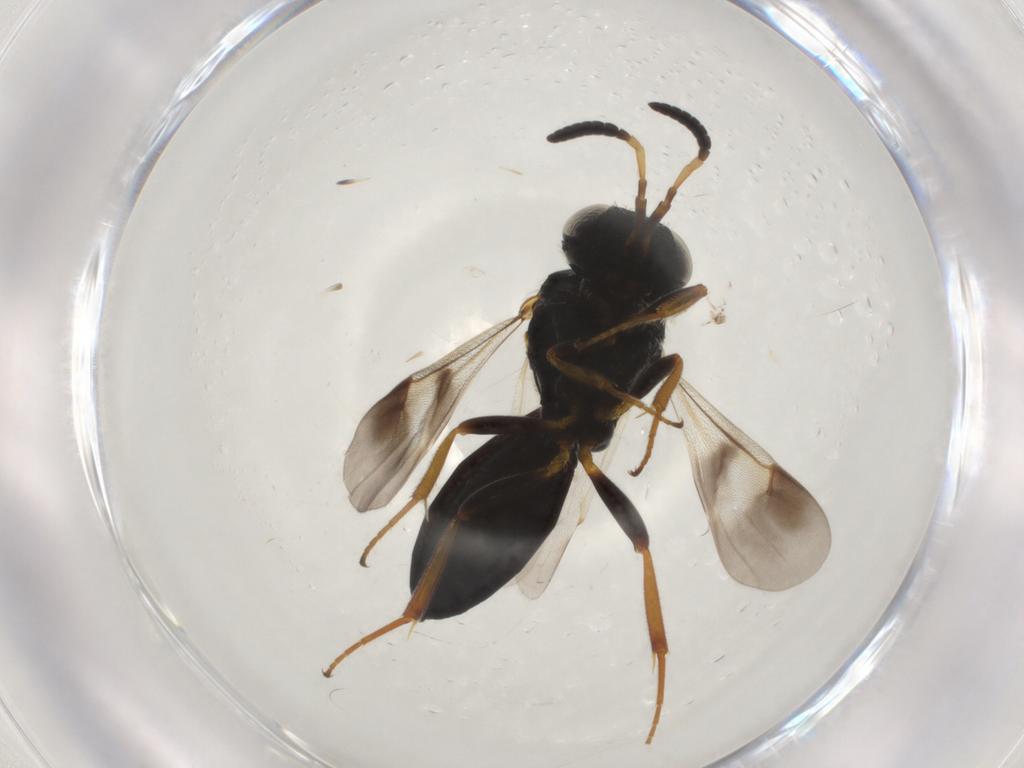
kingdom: Animalia
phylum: Arthropoda
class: Insecta
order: Hymenoptera
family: Scelionidae
